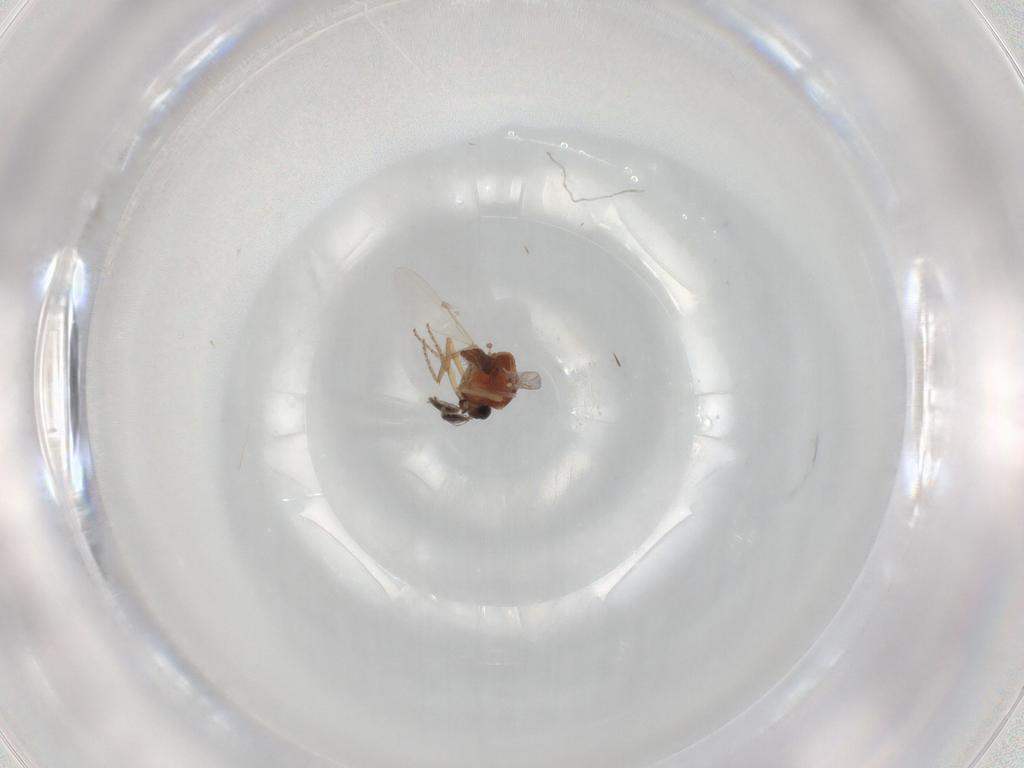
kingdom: Animalia
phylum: Arthropoda
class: Insecta
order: Diptera
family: Ceratopogonidae
